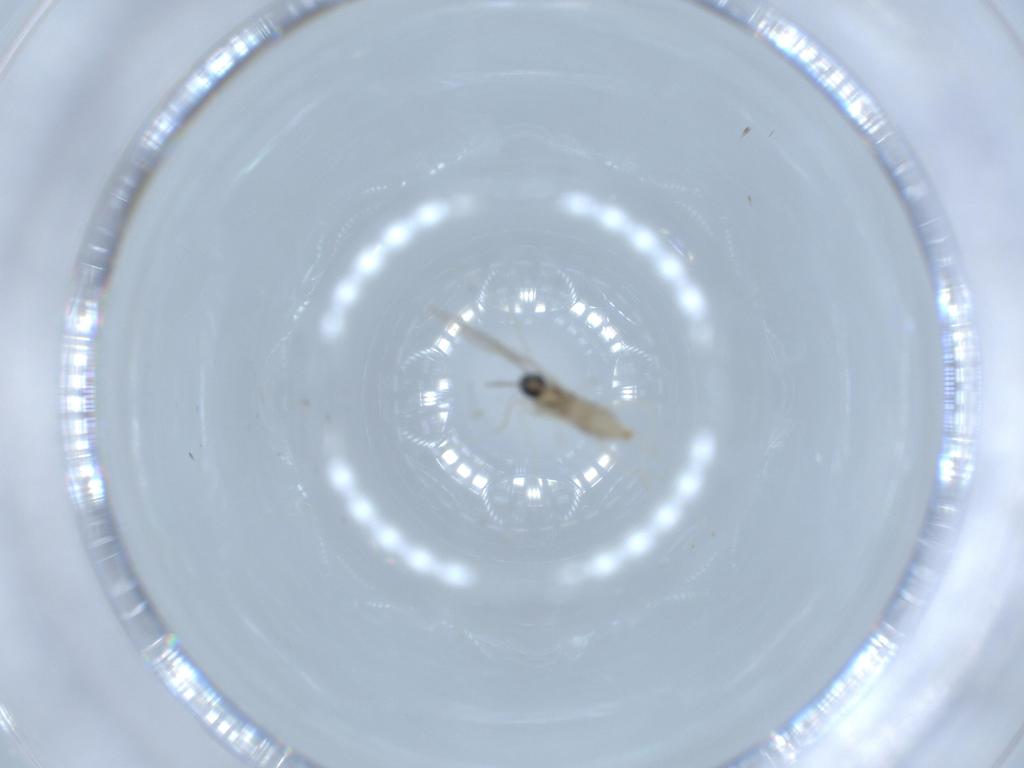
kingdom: Animalia
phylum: Arthropoda
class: Insecta
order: Diptera
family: Cecidomyiidae
